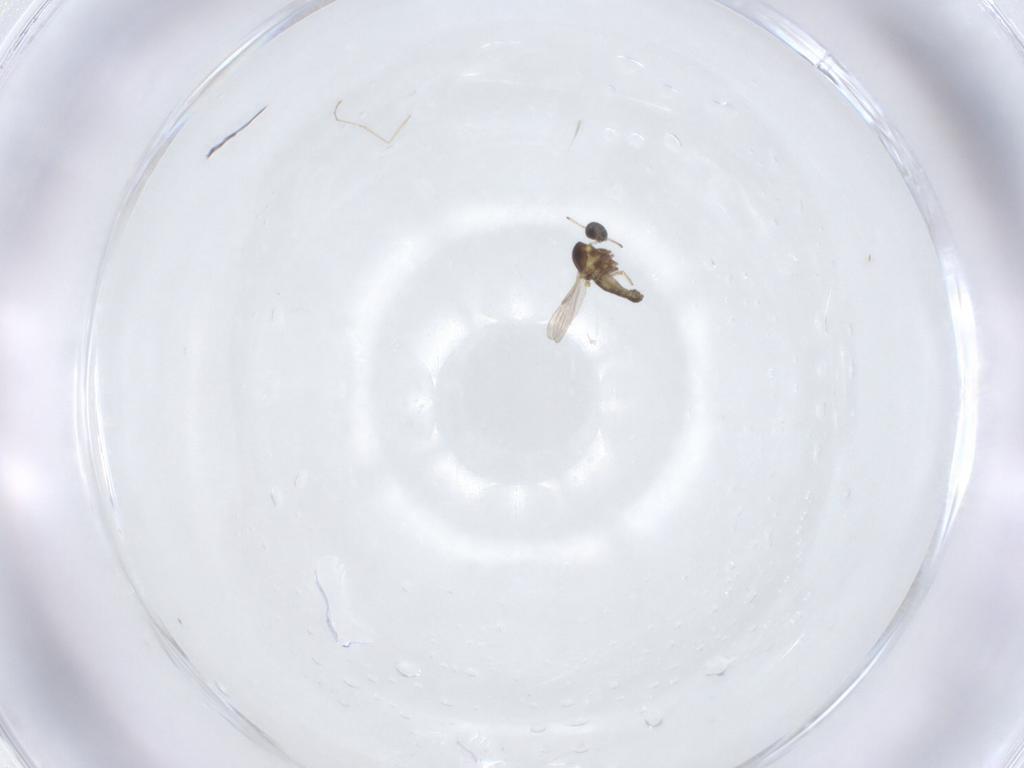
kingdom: Animalia
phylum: Arthropoda
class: Insecta
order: Diptera
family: Ceratopogonidae
